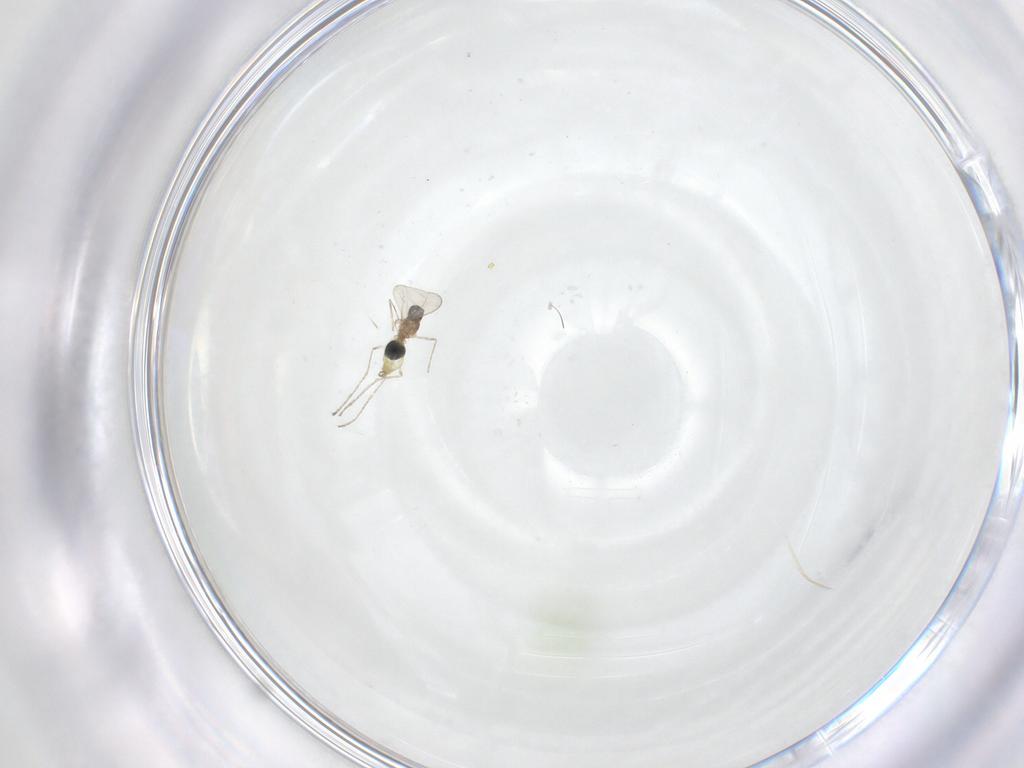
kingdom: Animalia
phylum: Arthropoda
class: Insecta
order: Diptera
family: Cecidomyiidae
